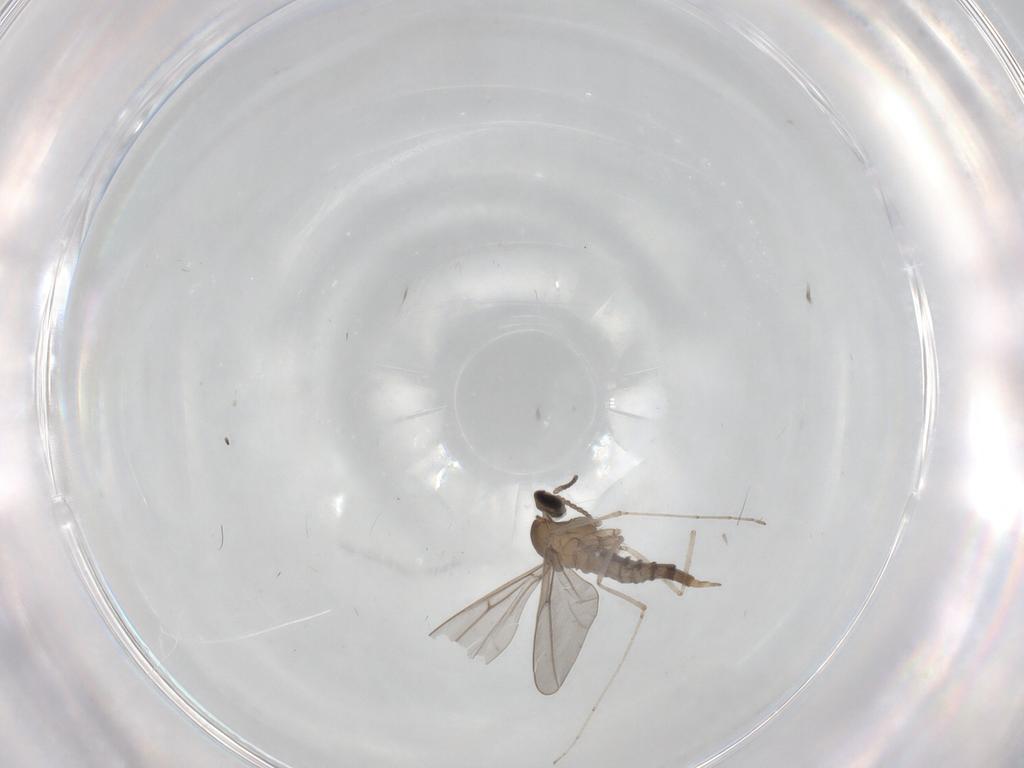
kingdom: Animalia
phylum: Arthropoda
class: Insecta
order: Diptera
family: Cecidomyiidae
